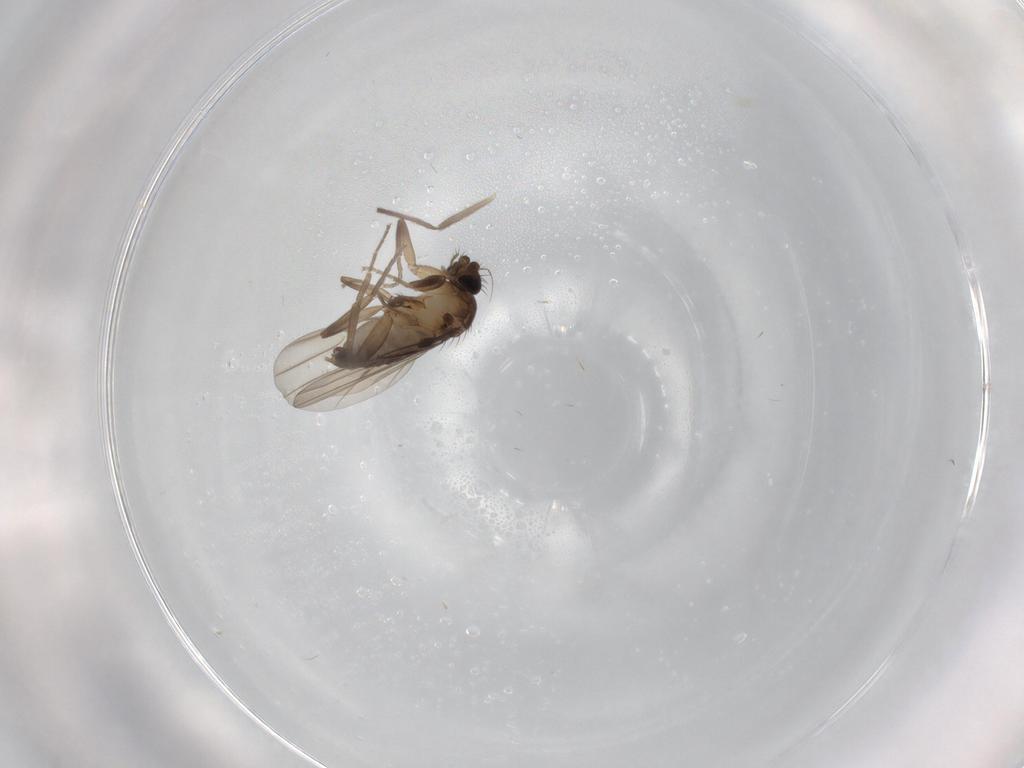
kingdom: Animalia
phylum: Arthropoda
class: Insecta
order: Diptera
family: Phoridae
